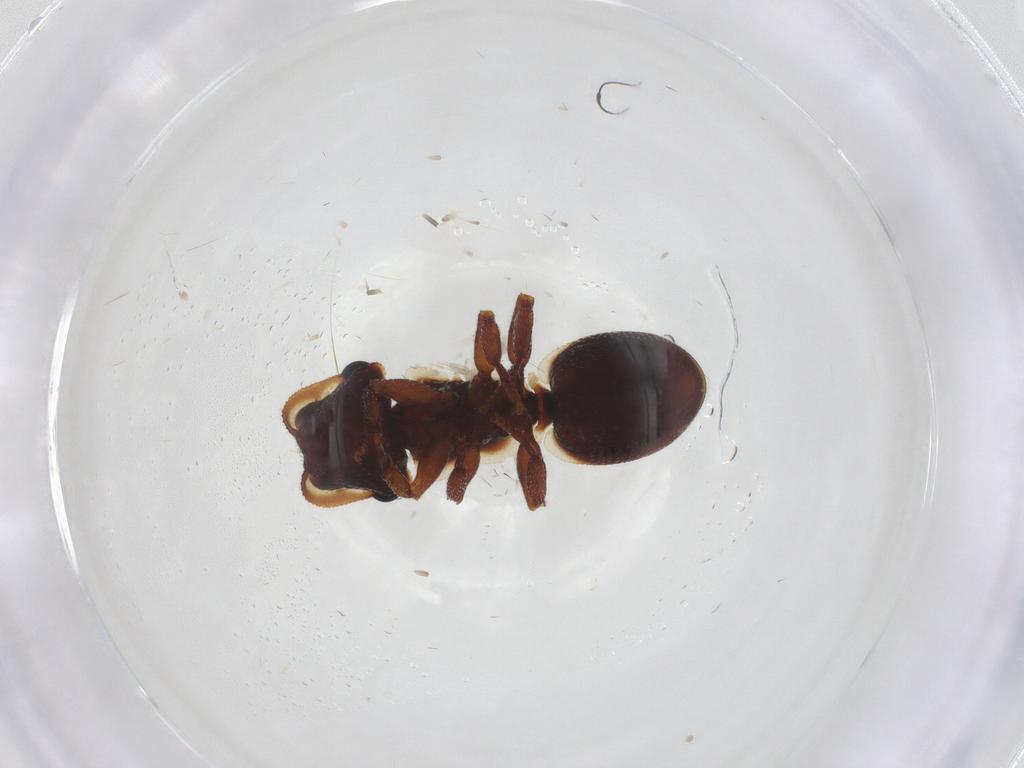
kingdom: Animalia
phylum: Arthropoda
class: Insecta
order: Hymenoptera
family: Formicidae
